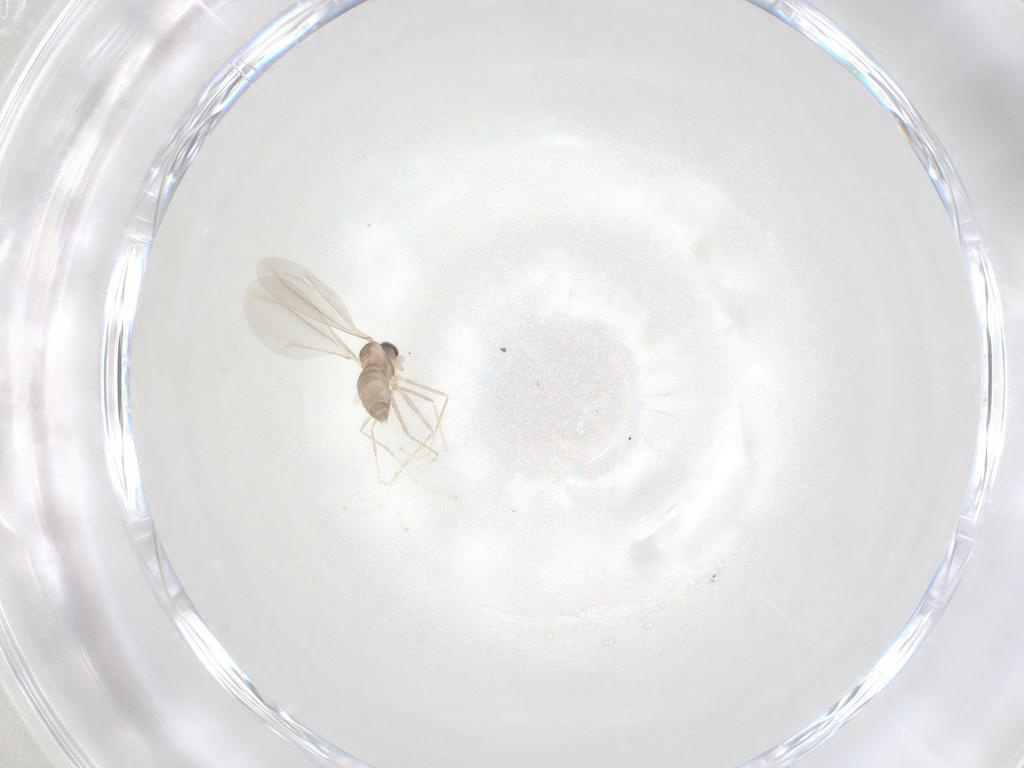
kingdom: Animalia
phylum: Arthropoda
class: Insecta
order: Diptera
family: Cecidomyiidae
